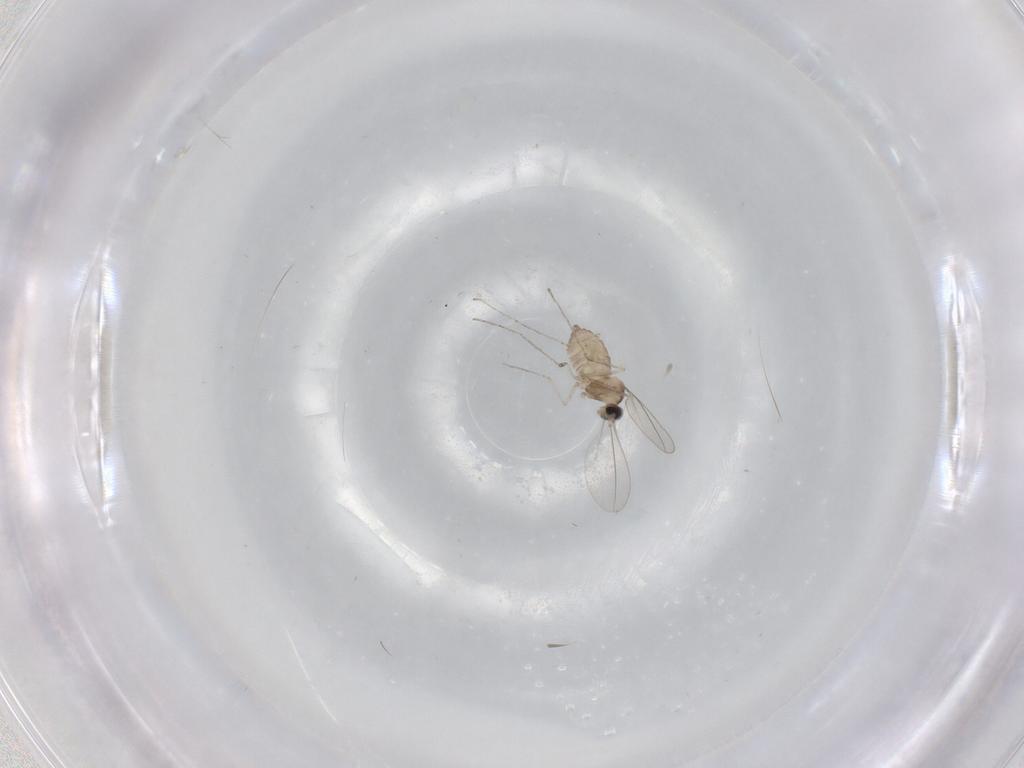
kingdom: Animalia
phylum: Arthropoda
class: Insecta
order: Diptera
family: Cecidomyiidae
